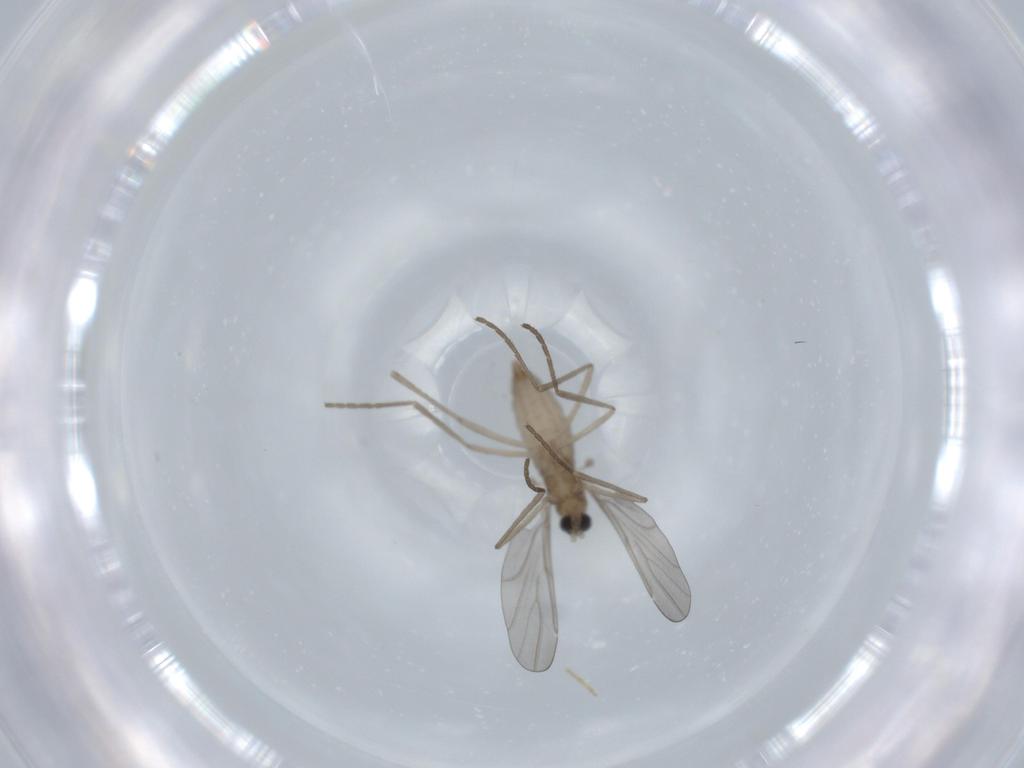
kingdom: Animalia
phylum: Arthropoda
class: Insecta
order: Diptera
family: Cecidomyiidae
